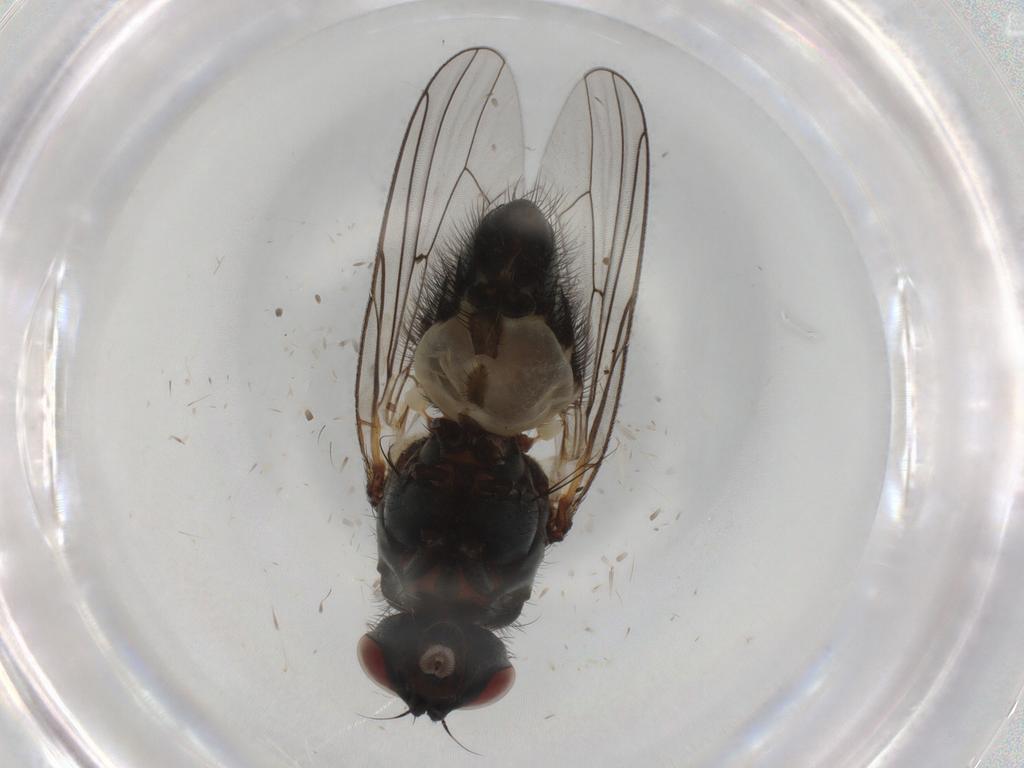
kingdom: Animalia
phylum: Arthropoda
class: Insecta
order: Diptera
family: Anthomyiidae
